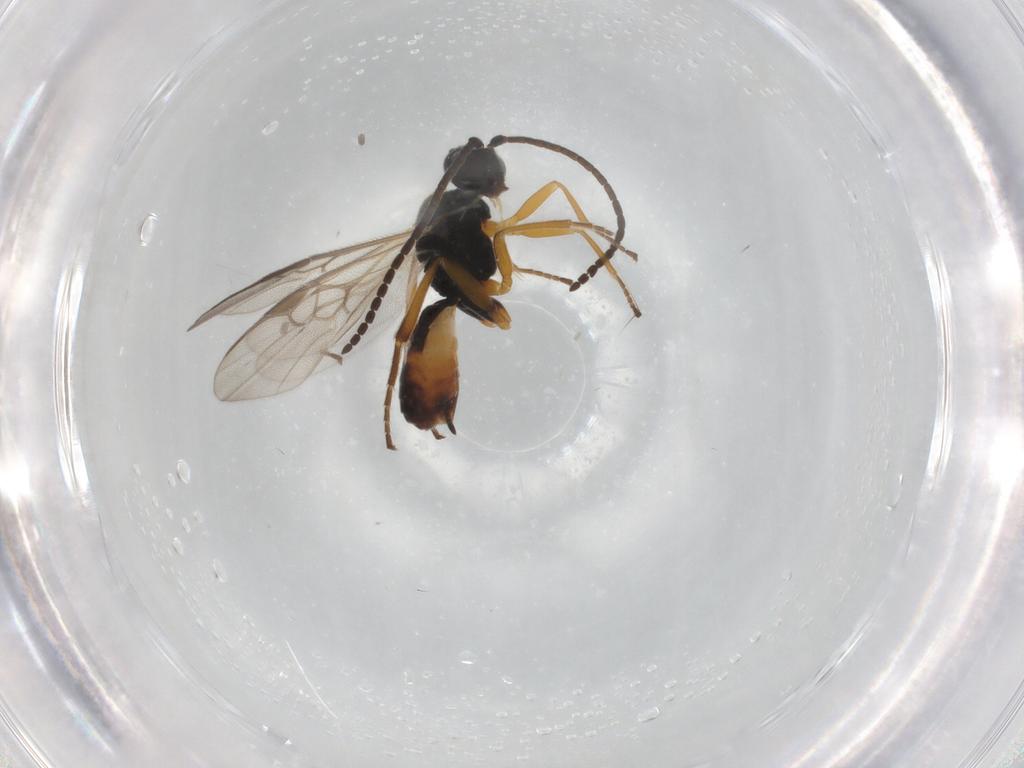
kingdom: Animalia
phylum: Arthropoda
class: Insecta
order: Hymenoptera
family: Braconidae
